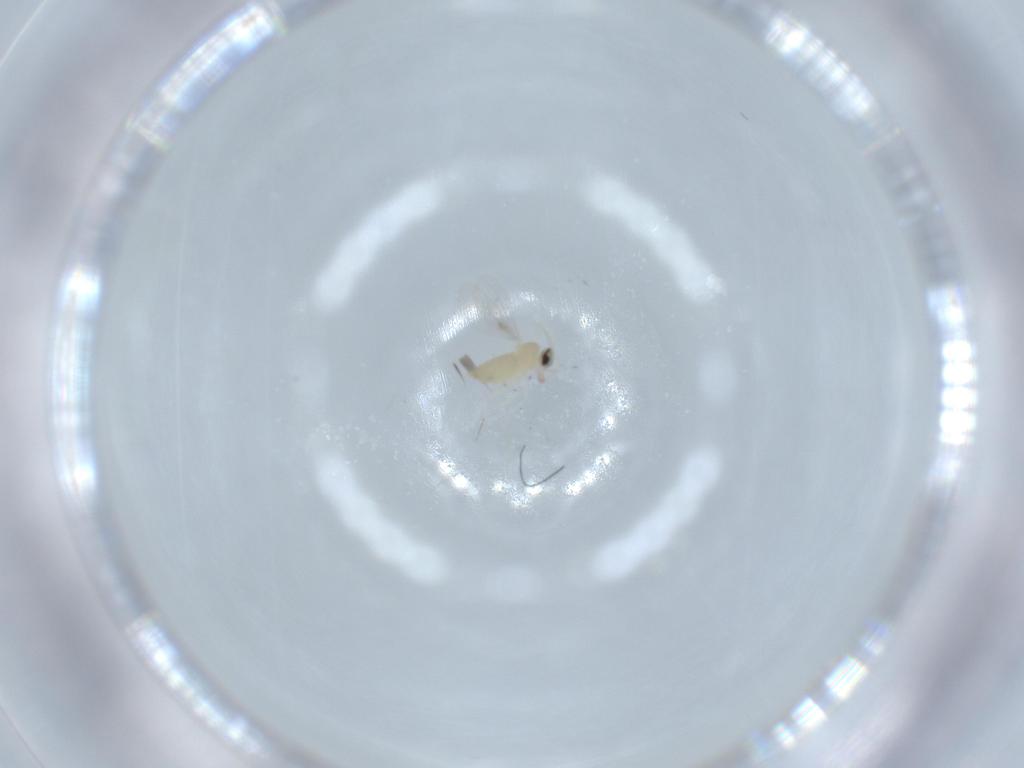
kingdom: Animalia
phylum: Arthropoda
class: Insecta
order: Diptera
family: Cecidomyiidae
